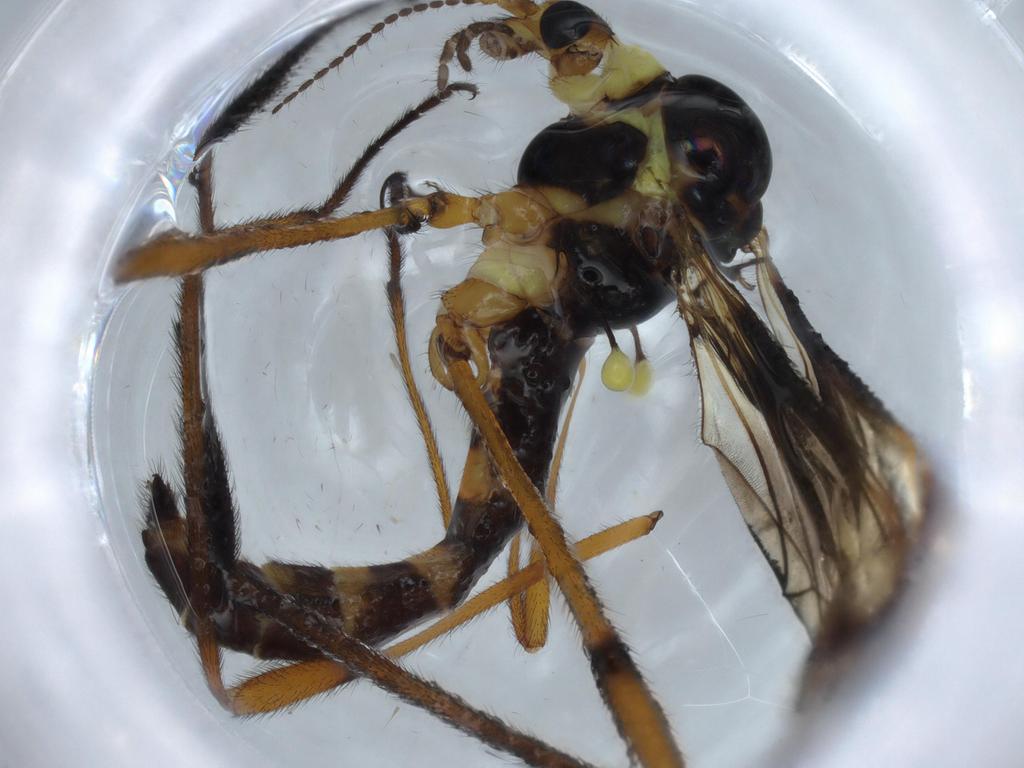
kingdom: Animalia
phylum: Arthropoda
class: Insecta
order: Diptera
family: Limoniidae
